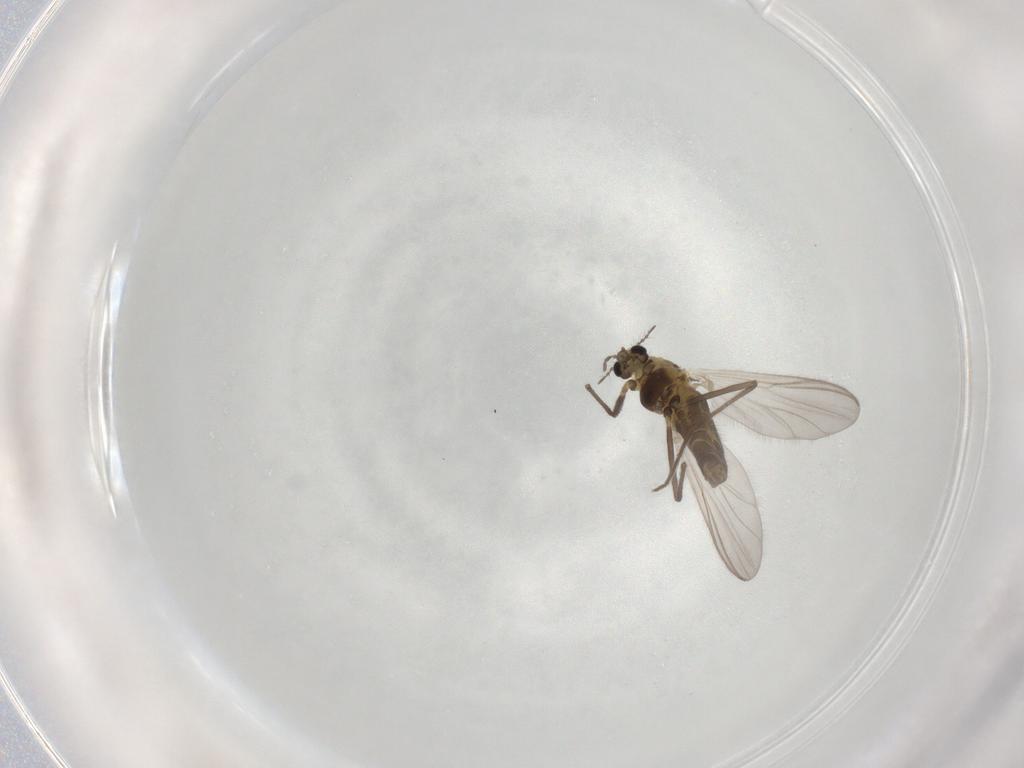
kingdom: Animalia
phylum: Arthropoda
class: Insecta
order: Diptera
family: Chironomidae
